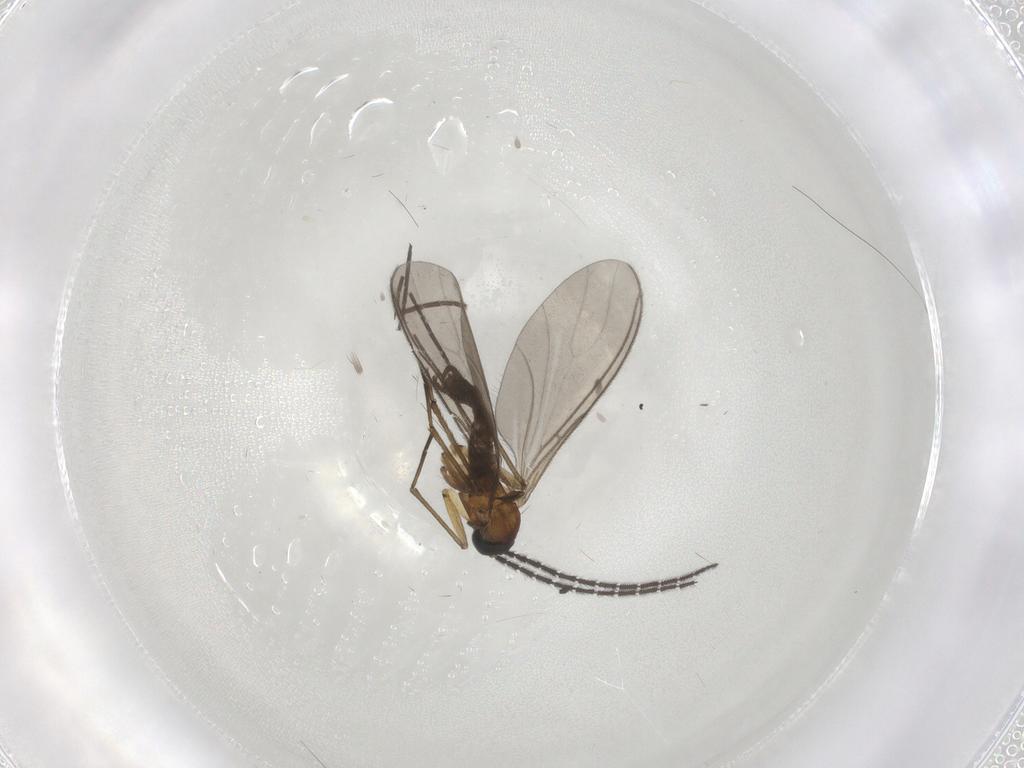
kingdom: Animalia
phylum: Arthropoda
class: Insecta
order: Diptera
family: Sciaridae
